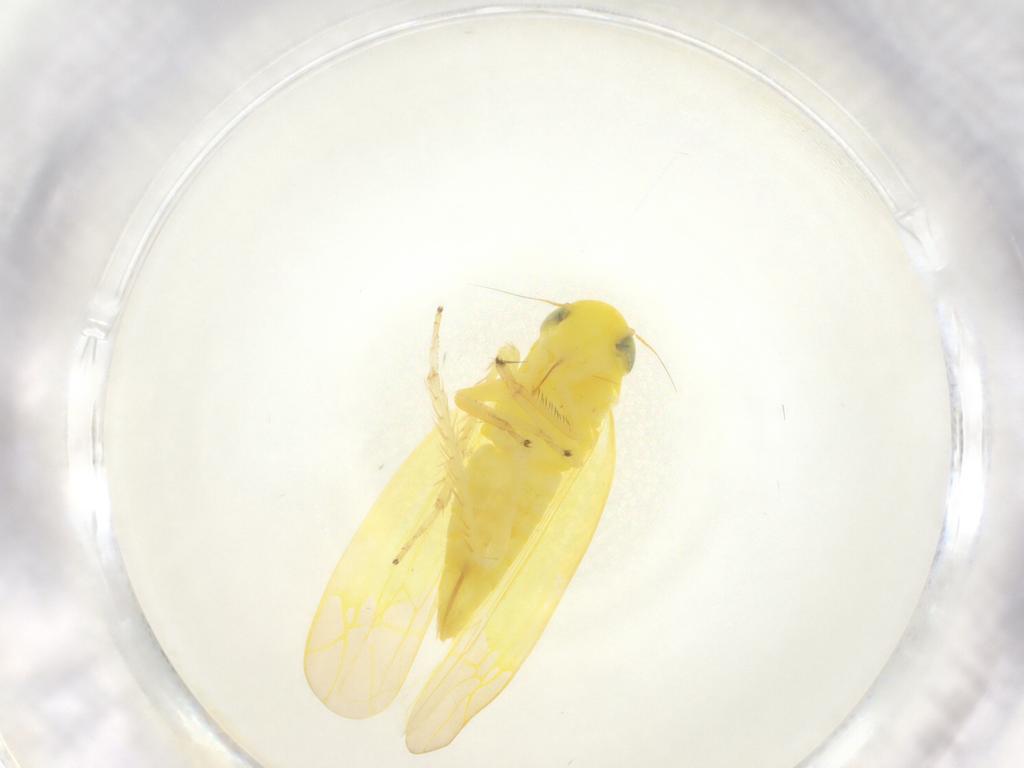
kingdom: Animalia
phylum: Arthropoda
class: Insecta
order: Hemiptera
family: Cicadellidae
